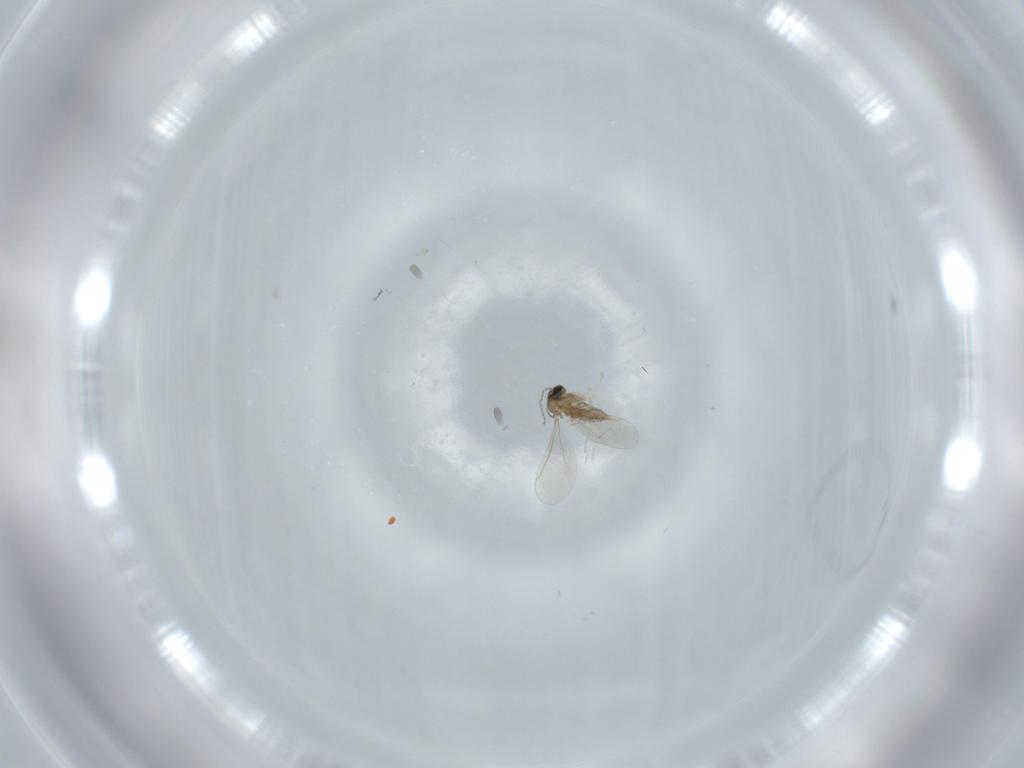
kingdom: Animalia
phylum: Arthropoda
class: Insecta
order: Diptera
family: Cecidomyiidae
